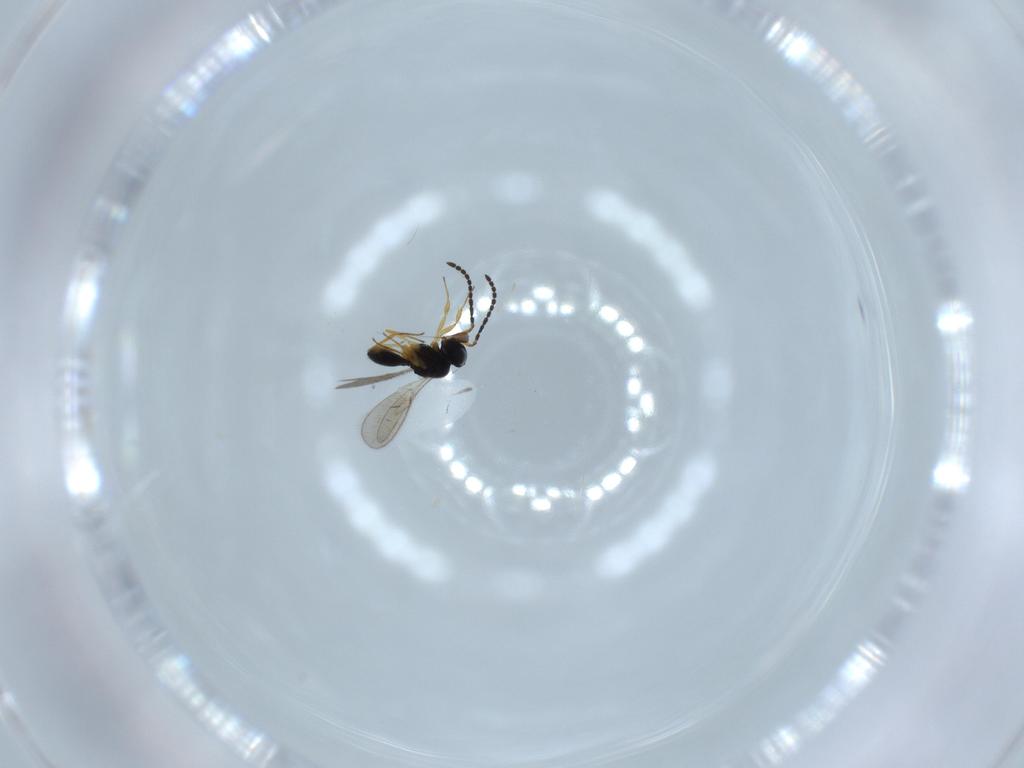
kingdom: Animalia
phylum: Arthropoda
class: Insecta
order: Hymenoptera
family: Scelionidae
